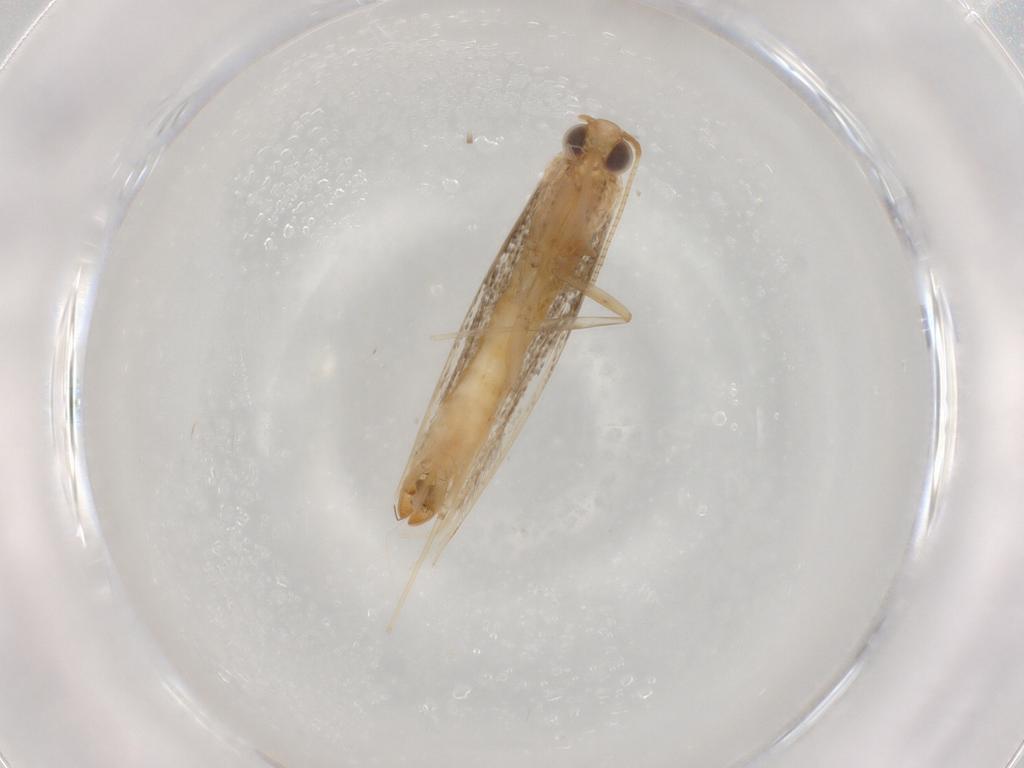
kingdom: Animalia
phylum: Arthropoda
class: Insecta
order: Lepidoptera
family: Gracillariidae
